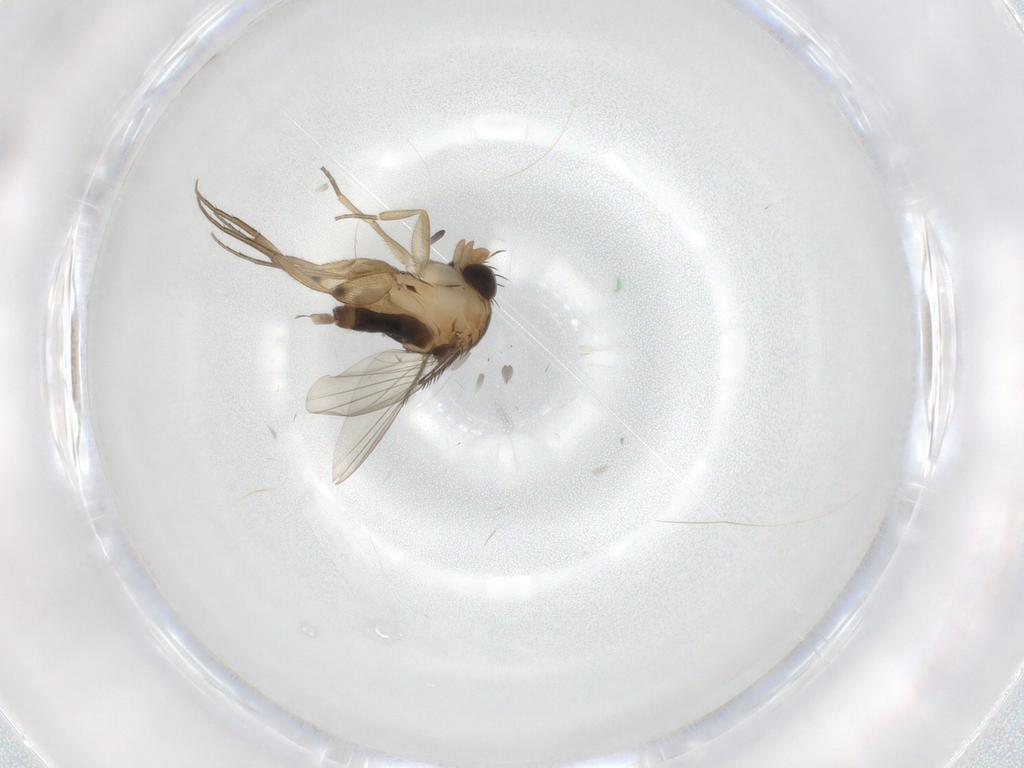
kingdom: Animalia
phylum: Arthropoda
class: Insecta
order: Diptera
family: Phoridae
